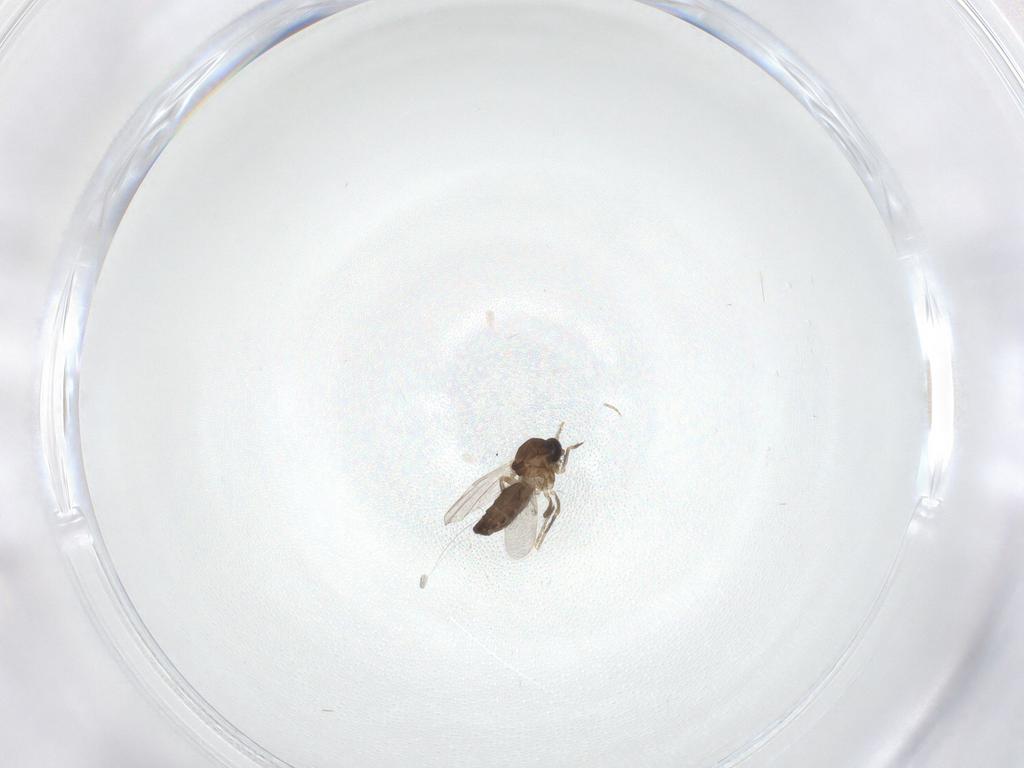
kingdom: Animalia
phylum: Arthropoda
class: Insecta
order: Diptera
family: Ceratopogonidae
